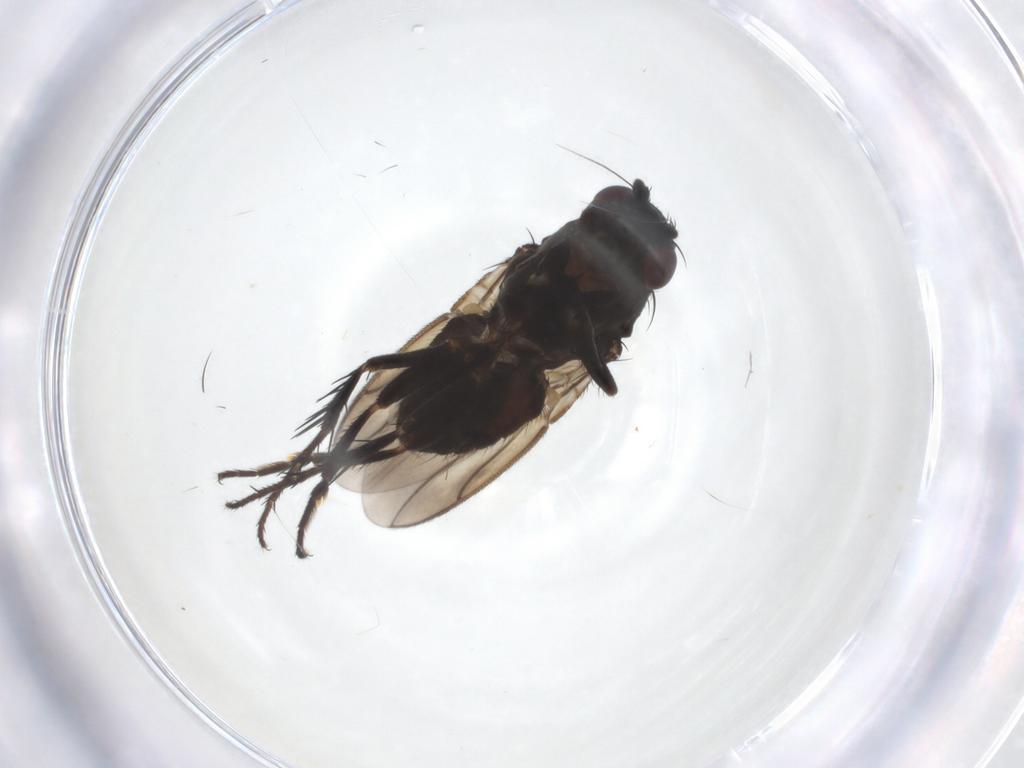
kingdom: Animalia
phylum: Arthropoda
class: Insecta
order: Diptera
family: Sphaeroceridae
